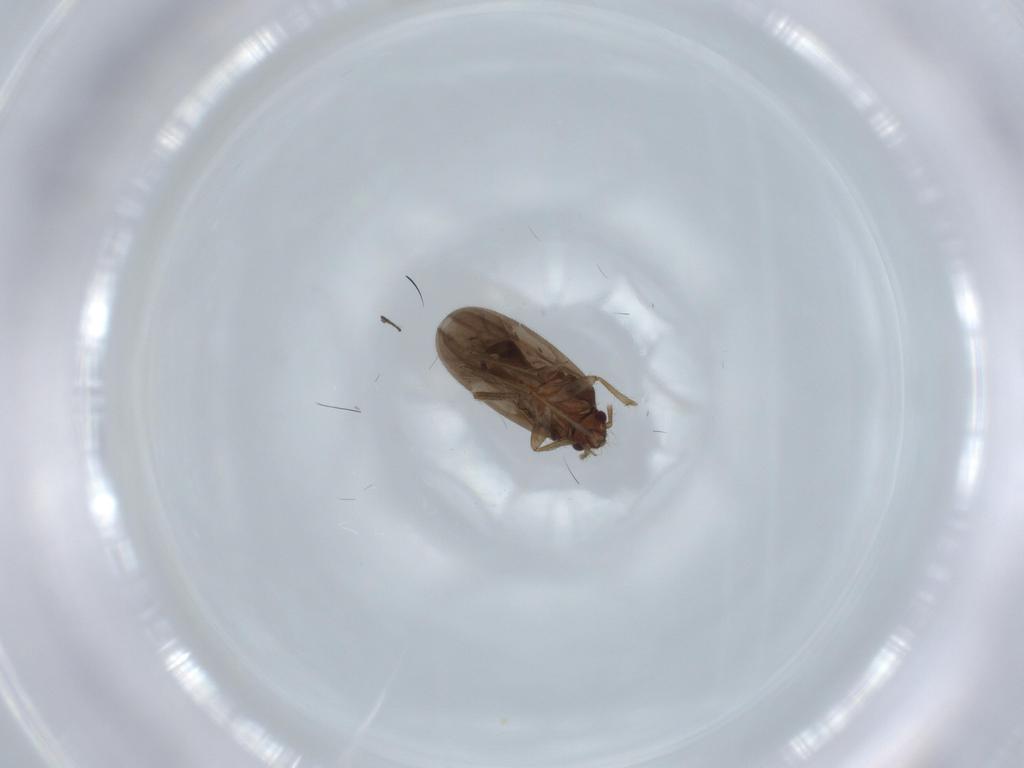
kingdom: Animalia
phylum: Arthropoda
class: Insecta
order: Hemiptera
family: Ceratocombidae
